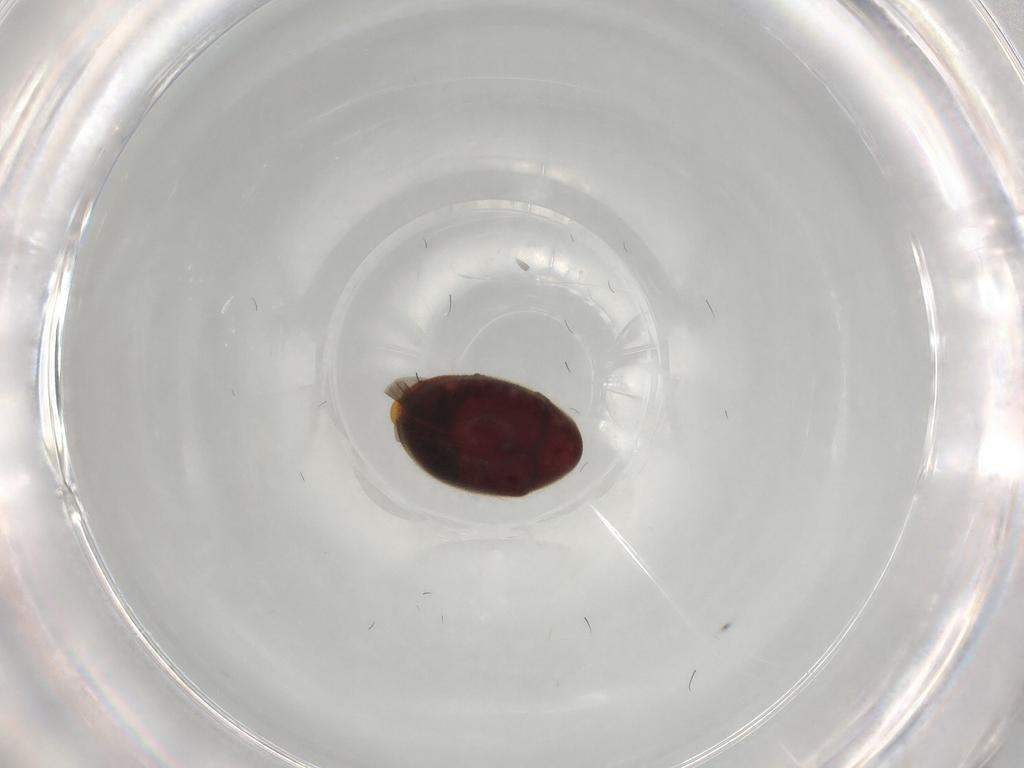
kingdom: Animalia
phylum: Arthropoda
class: Insecta
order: Coleoptera
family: Ptinidae
